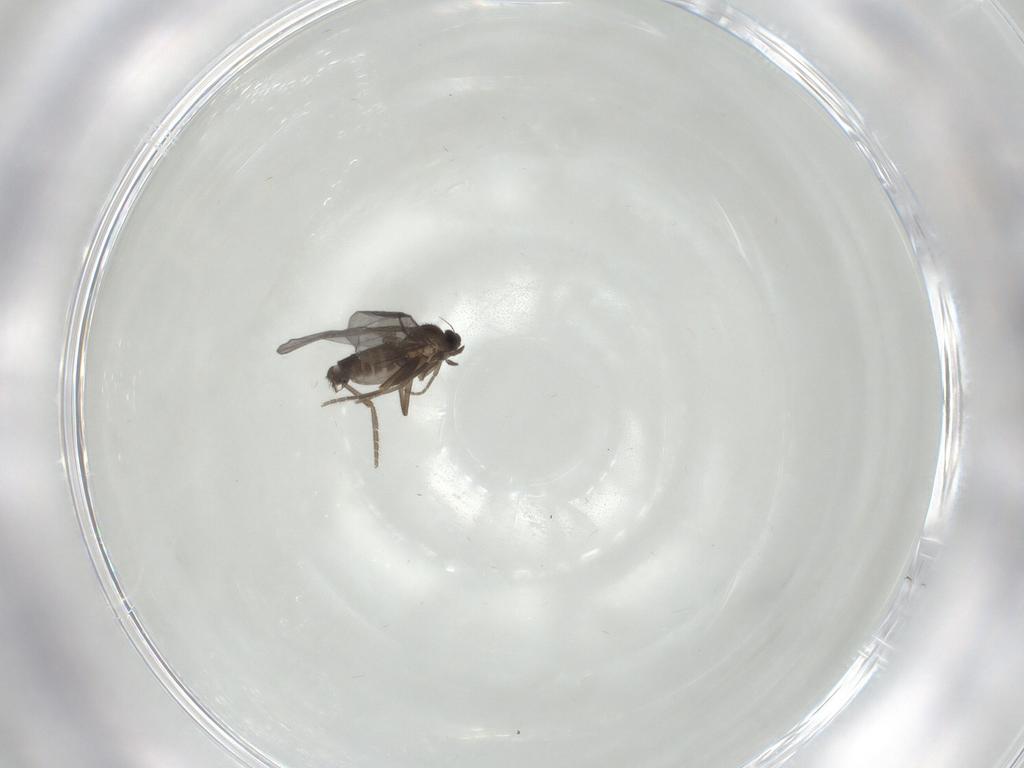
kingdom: Animalia
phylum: Arthropoda
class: Insecta
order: Diptera
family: Phoridae
